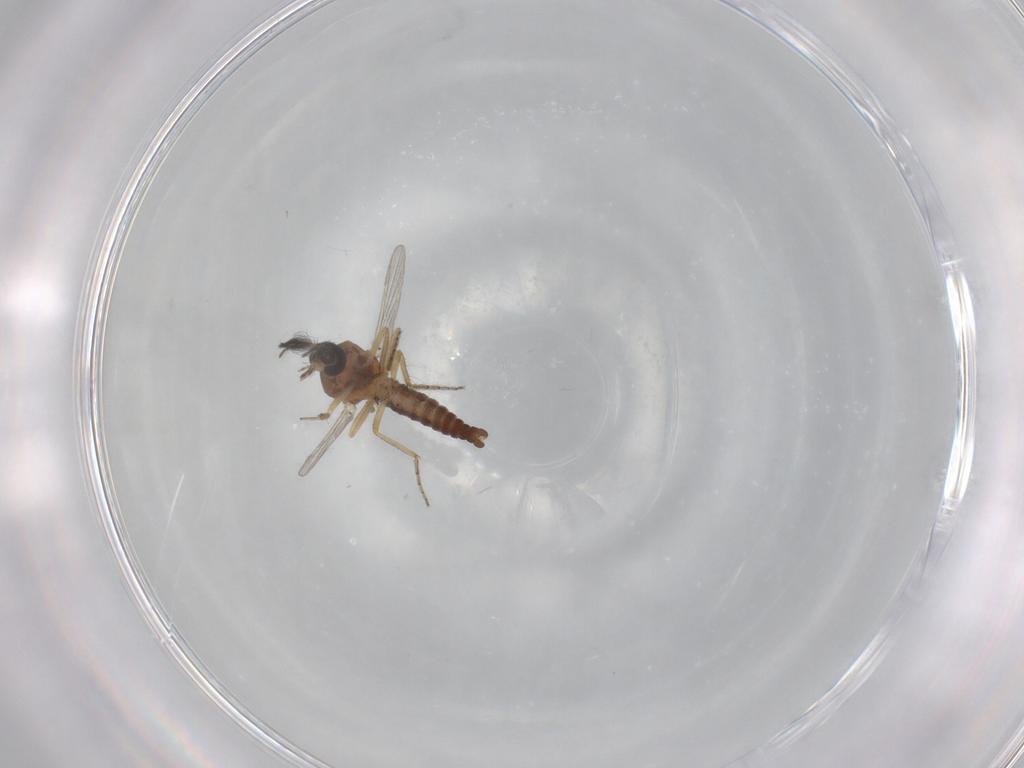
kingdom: Animalia
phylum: Arthropoda
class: Insecta
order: Diptera
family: Ceratopogonidae
